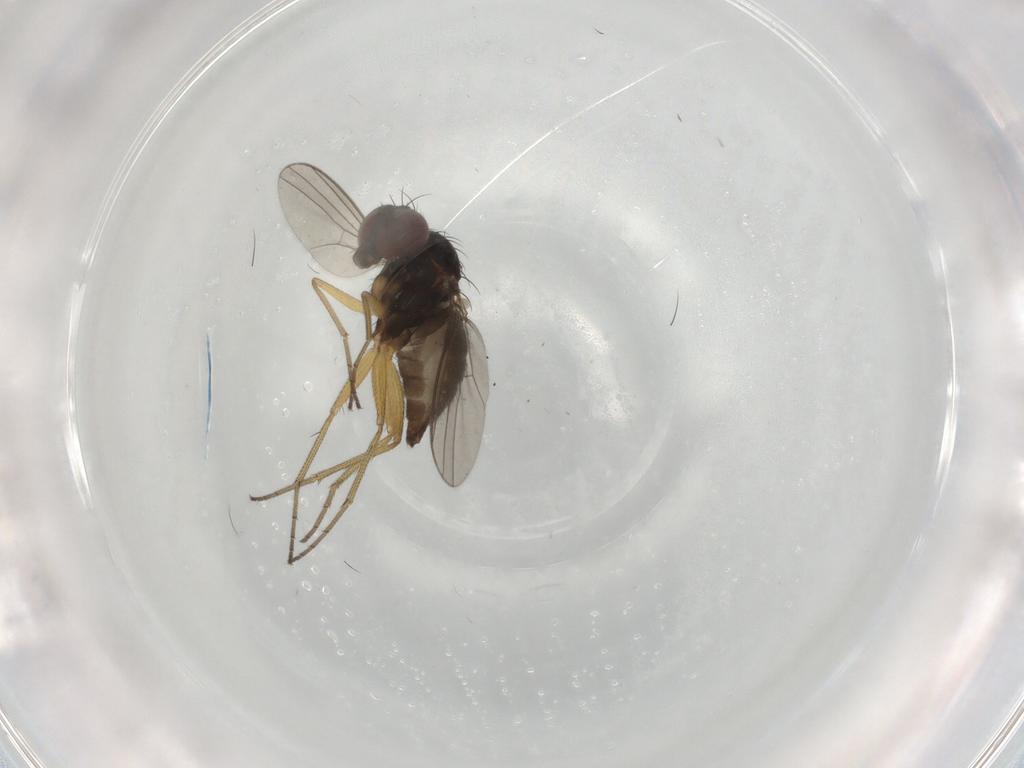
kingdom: Animalia
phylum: Arthropoda
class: Insecta
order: Diptera
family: Dolichopodidae
